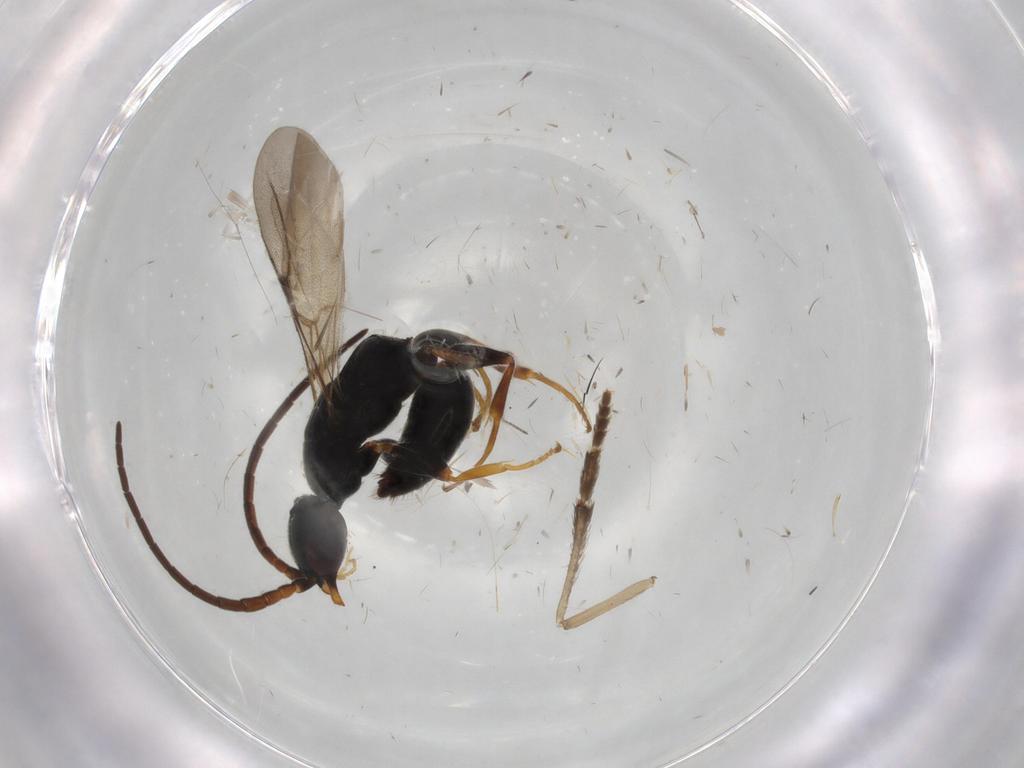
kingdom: Animalia
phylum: Arthropoda
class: Insecta
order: Hymenoptera
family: Bethylidae
